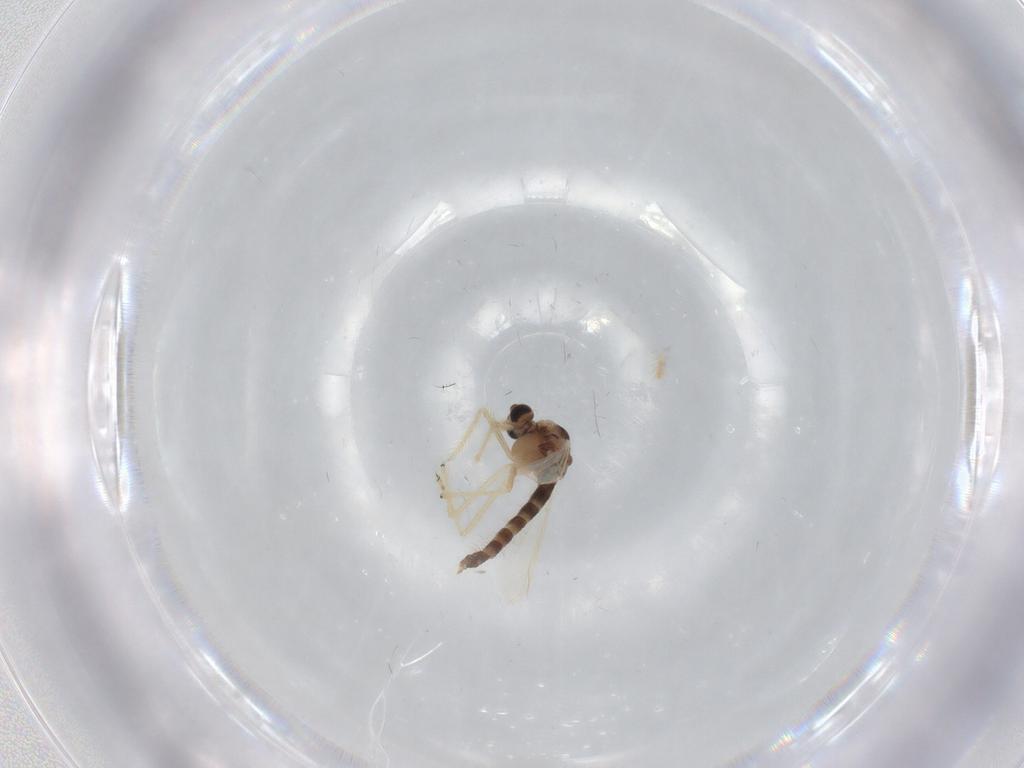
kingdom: Animalia
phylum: Arthropoda
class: Insecta
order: Diptera
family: Chironomidae
